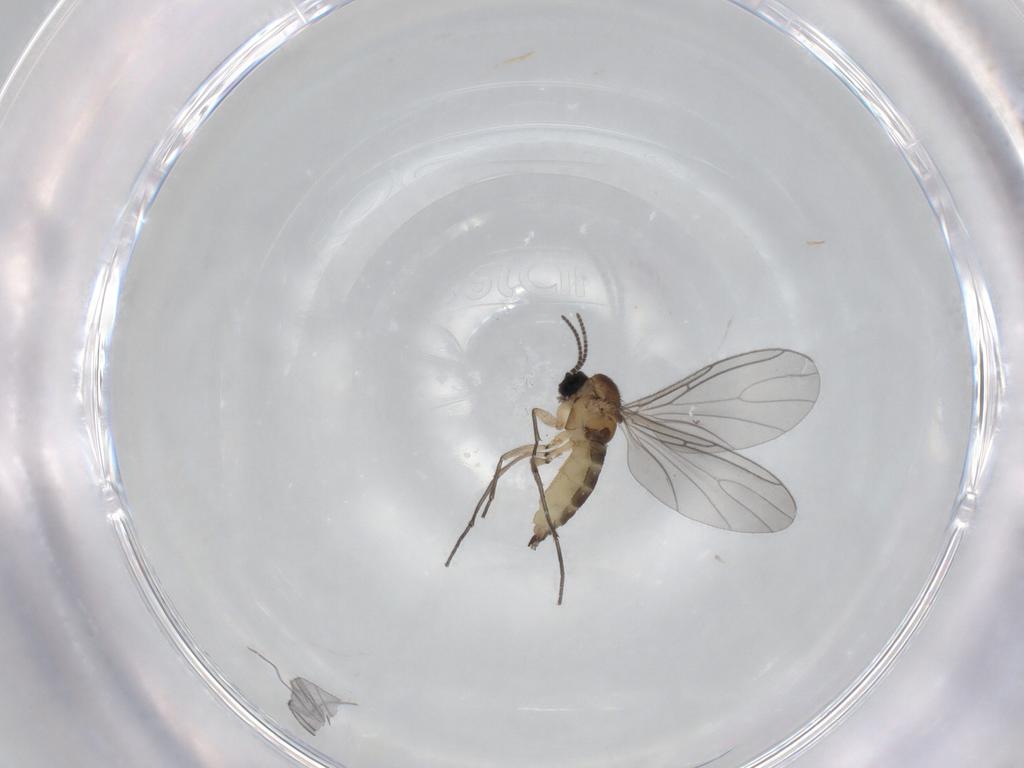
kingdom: Animalia
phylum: Arthropoda
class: Insecta
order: Diptera
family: Sciaridae
